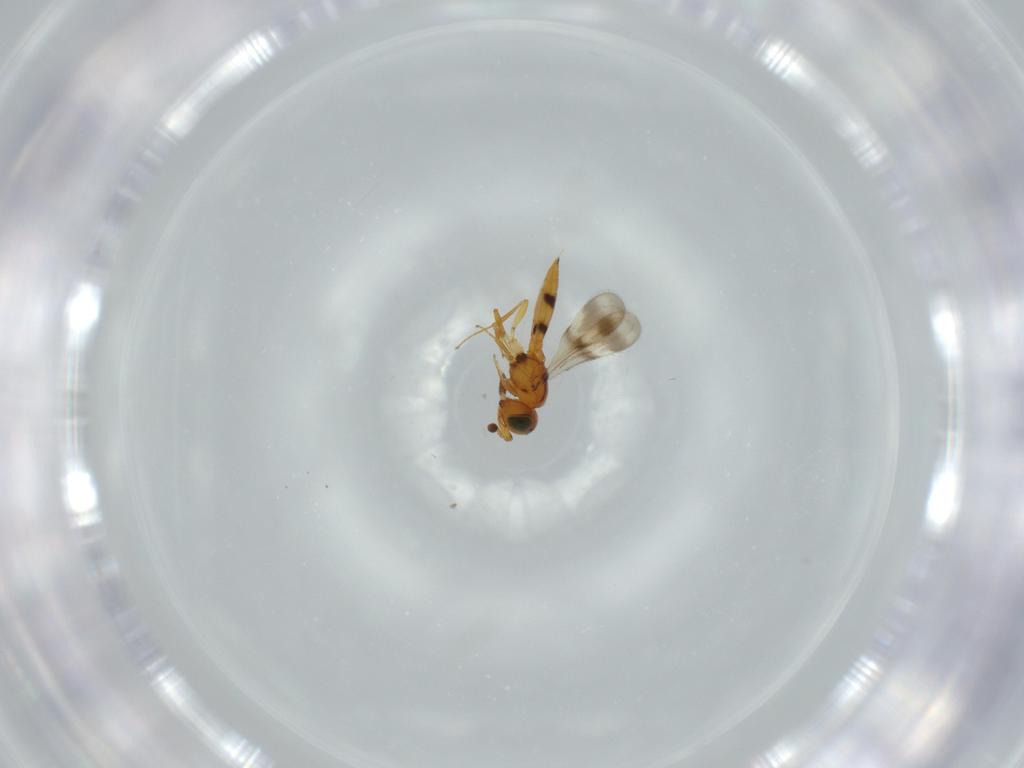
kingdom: Animalia
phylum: Arthropoda
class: Insecta
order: Hymenoptera
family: Scelionidae
